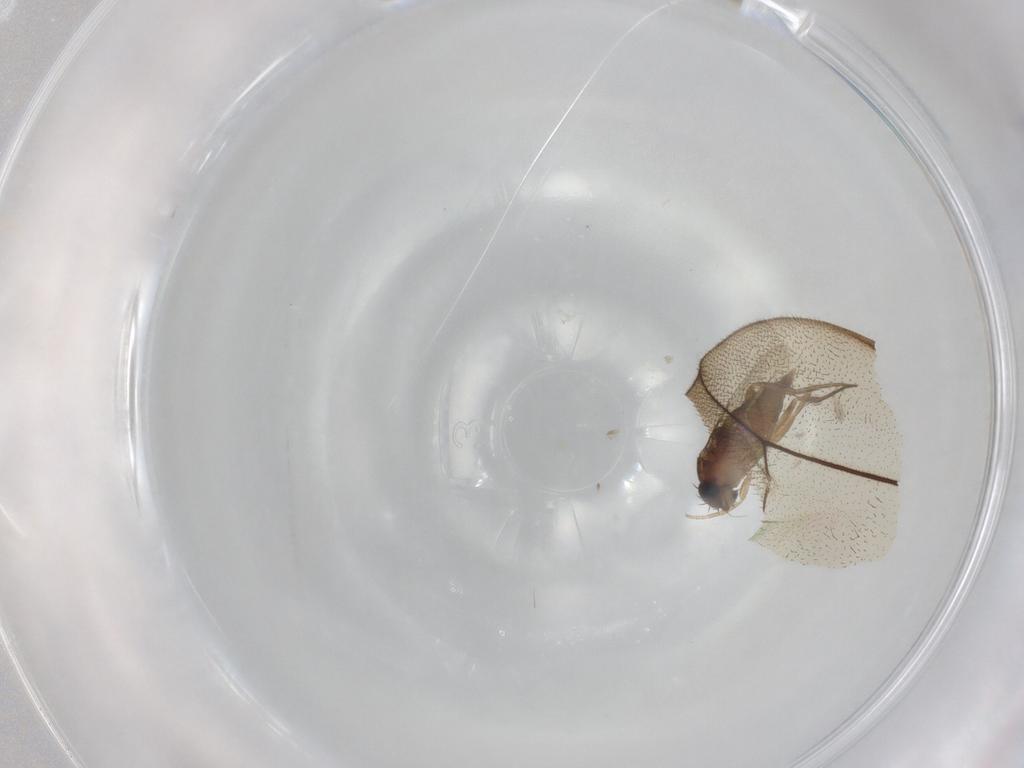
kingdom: Animalia
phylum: Arthropoda
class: Insecta
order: Diptera
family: Phoridae
